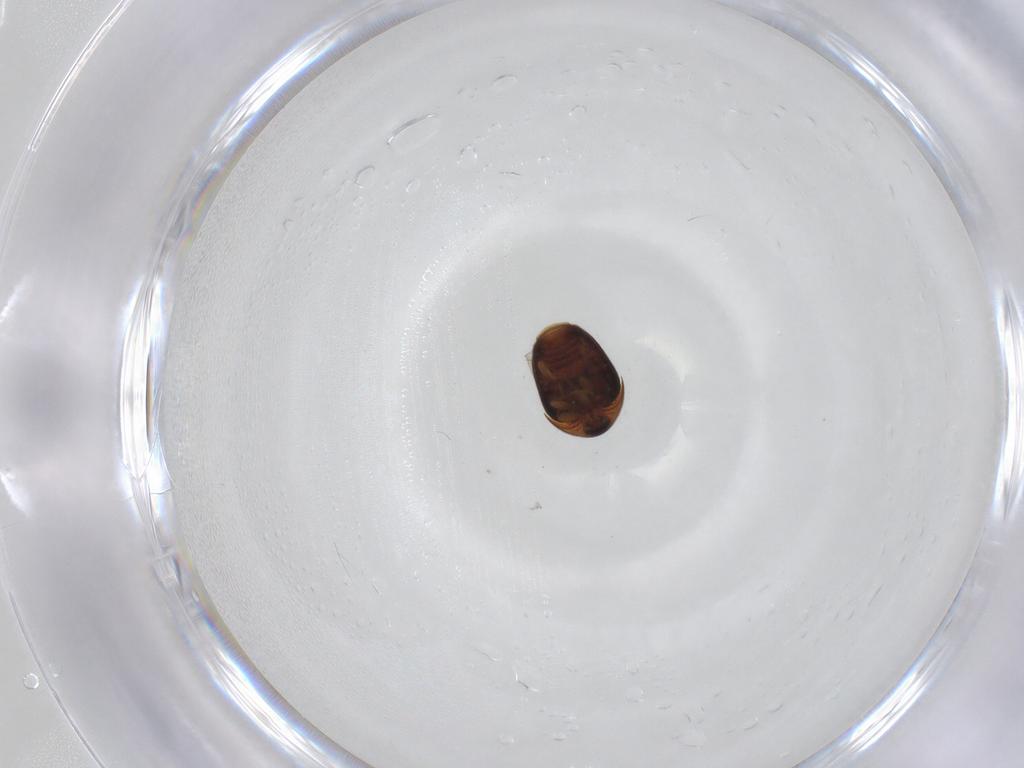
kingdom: Animalia
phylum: Arthropoda
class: Insecta
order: Coleoptera
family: Corylophidae
